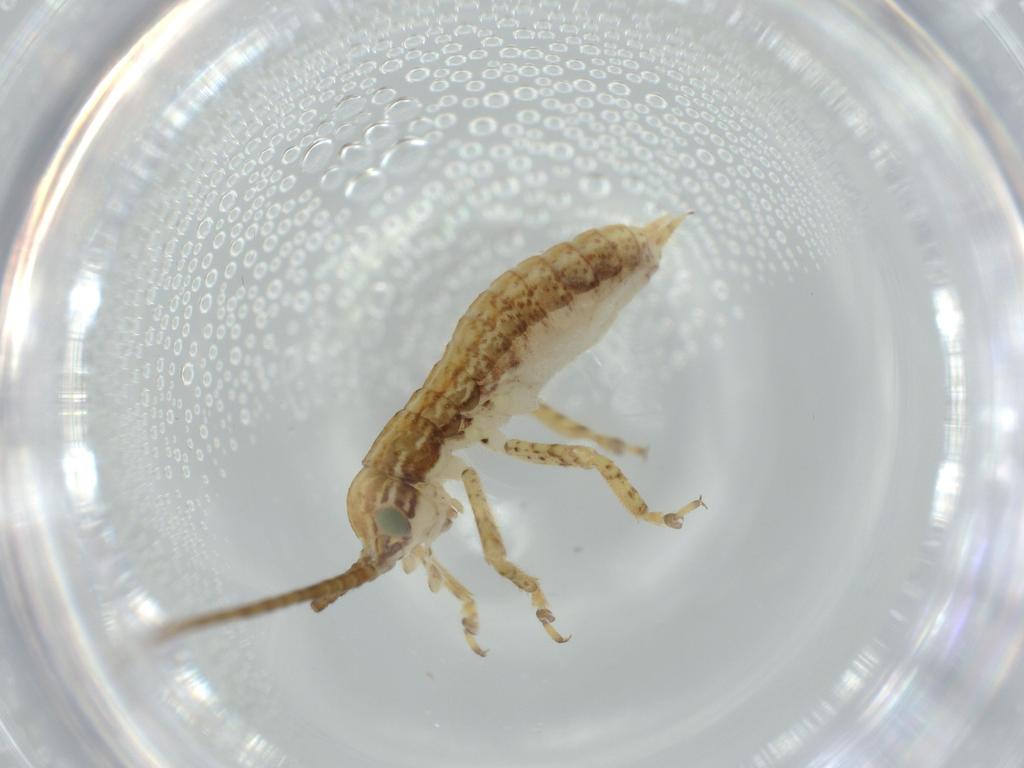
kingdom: Animalia
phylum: Arthropoda
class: Insecta
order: Orthoptera
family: Gryllidae
